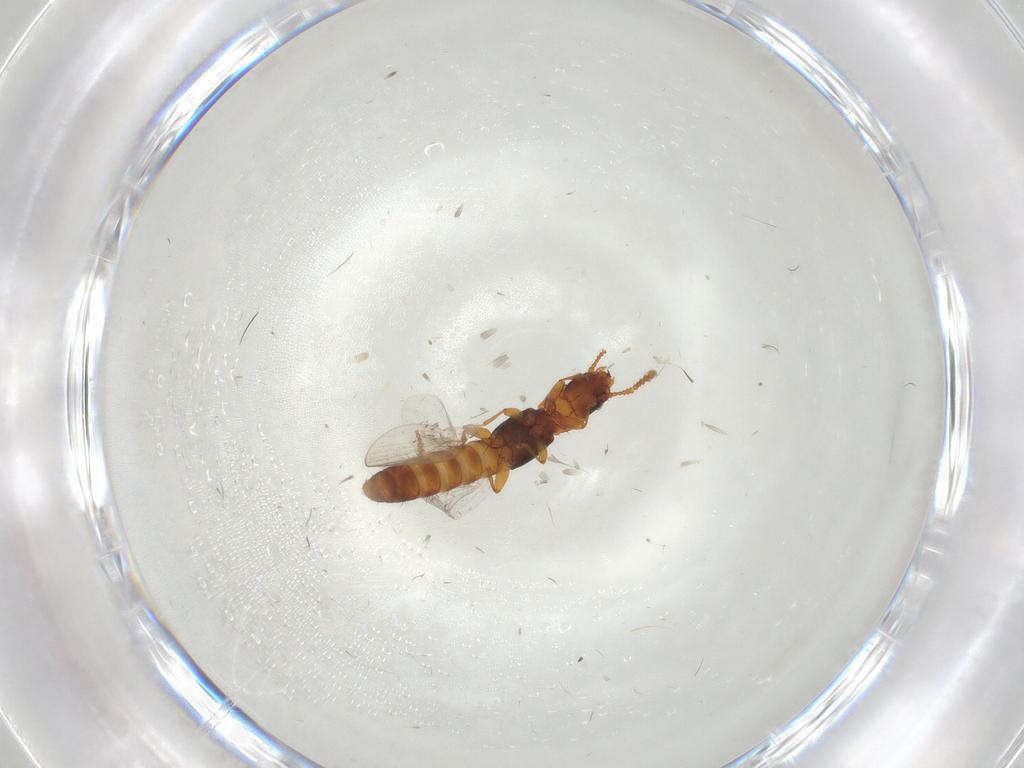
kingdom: Animalia
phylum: Arthropoda
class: Insecta
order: Coleoptera
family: Staphylinidae
